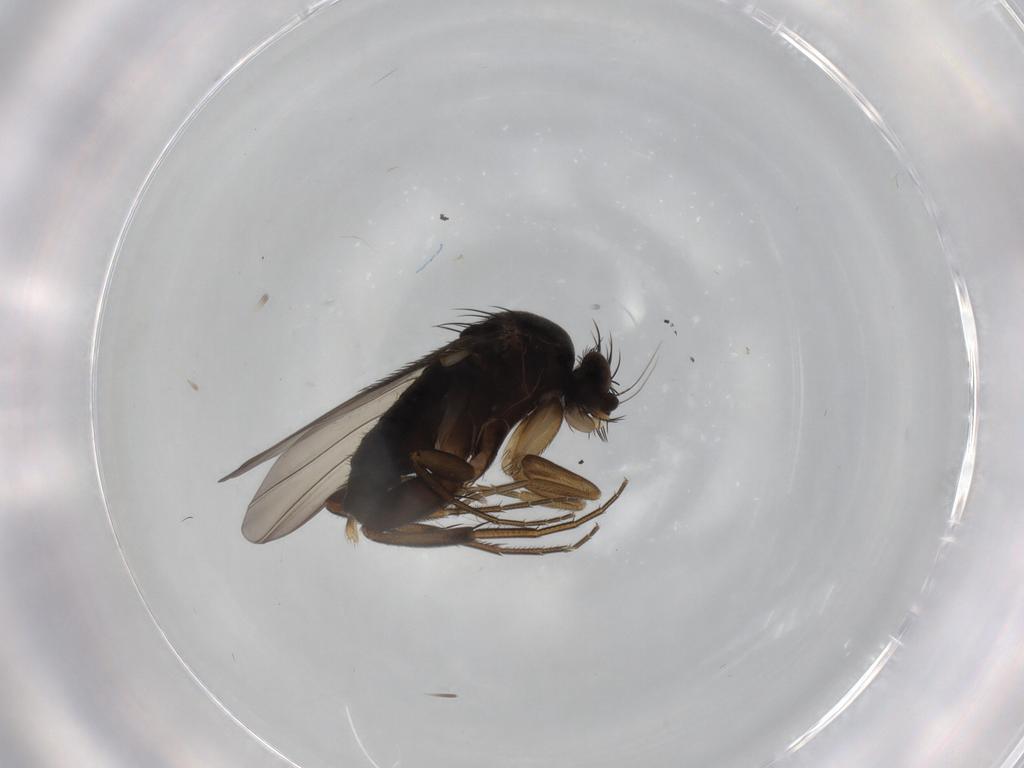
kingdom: Animalia
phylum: Arthropoda
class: Insecta
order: Diptera
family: Phoridae
